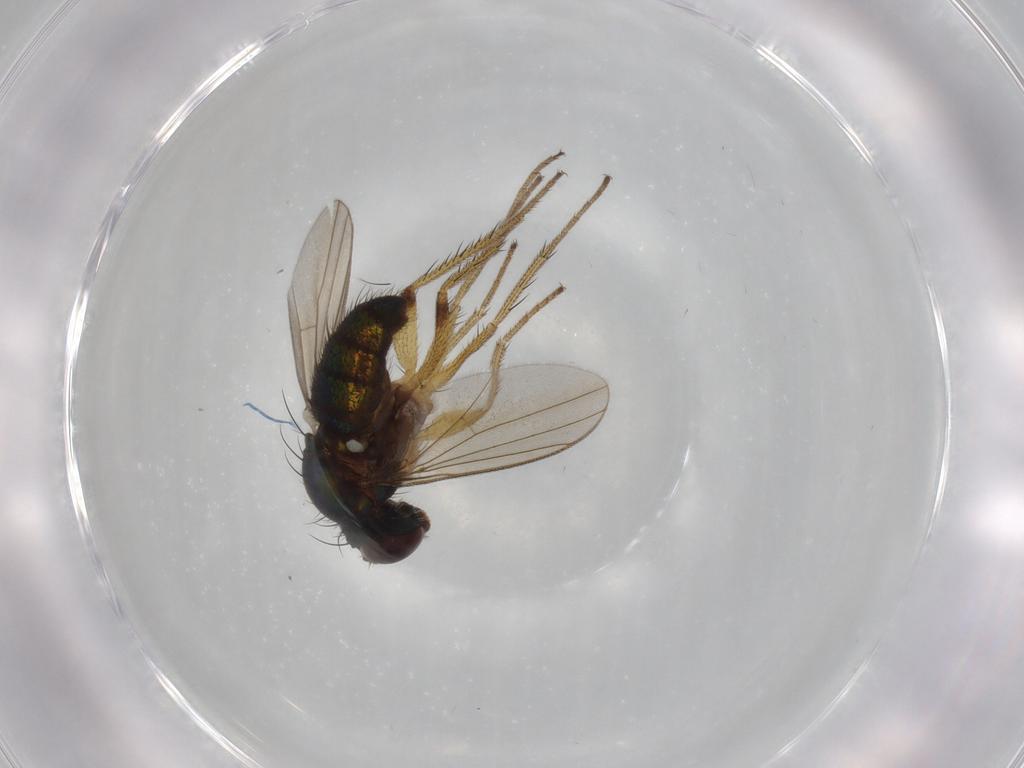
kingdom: Animalia
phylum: Arthropoda
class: Insecta
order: Diptera
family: Dolichopodidae
